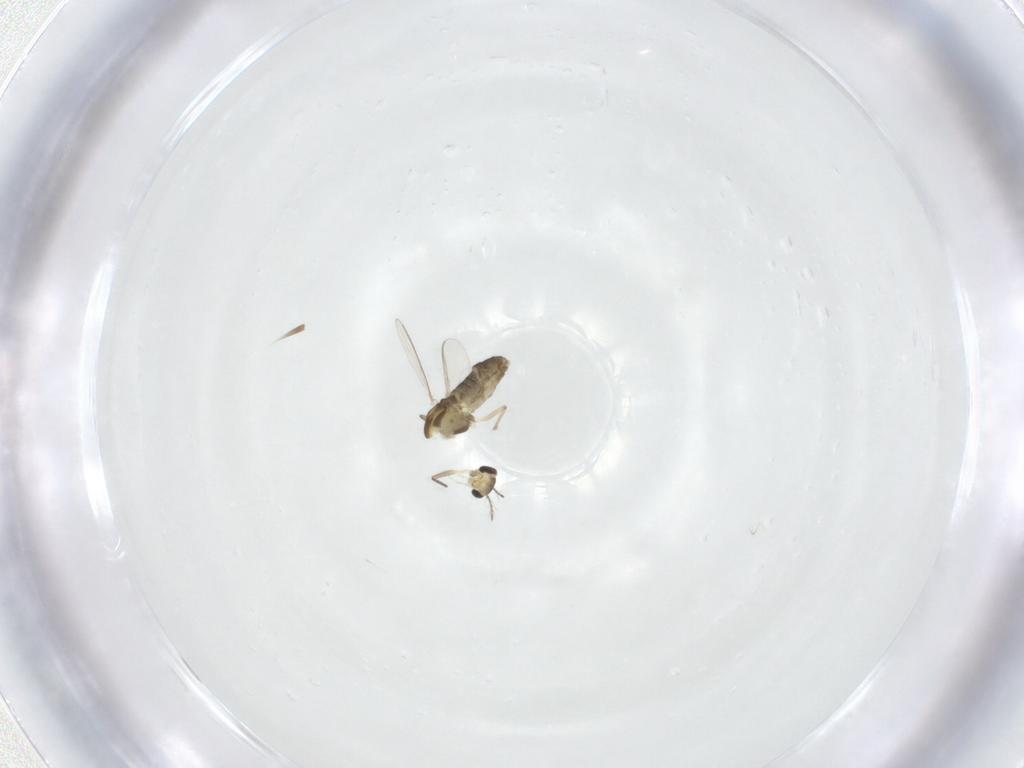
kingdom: Animalia
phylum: Arthropoda
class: Insecta
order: Diptera
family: Chironomidae
